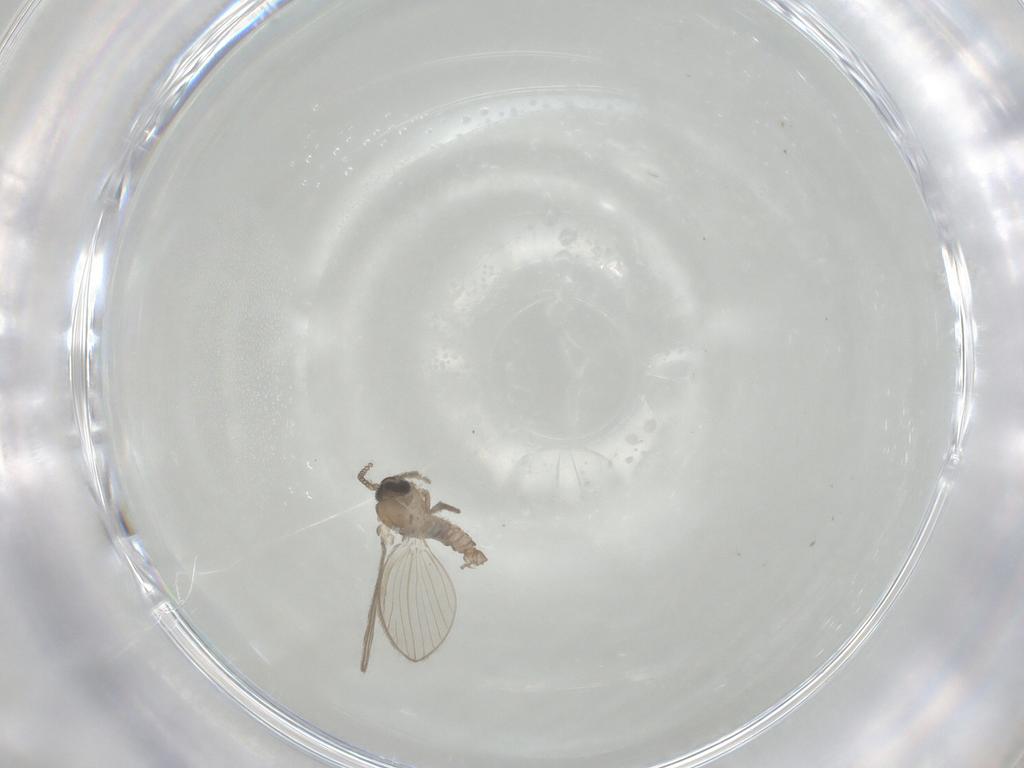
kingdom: Animalia
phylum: Arthropoda
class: Insecta
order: Diptera
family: Psychodidae
